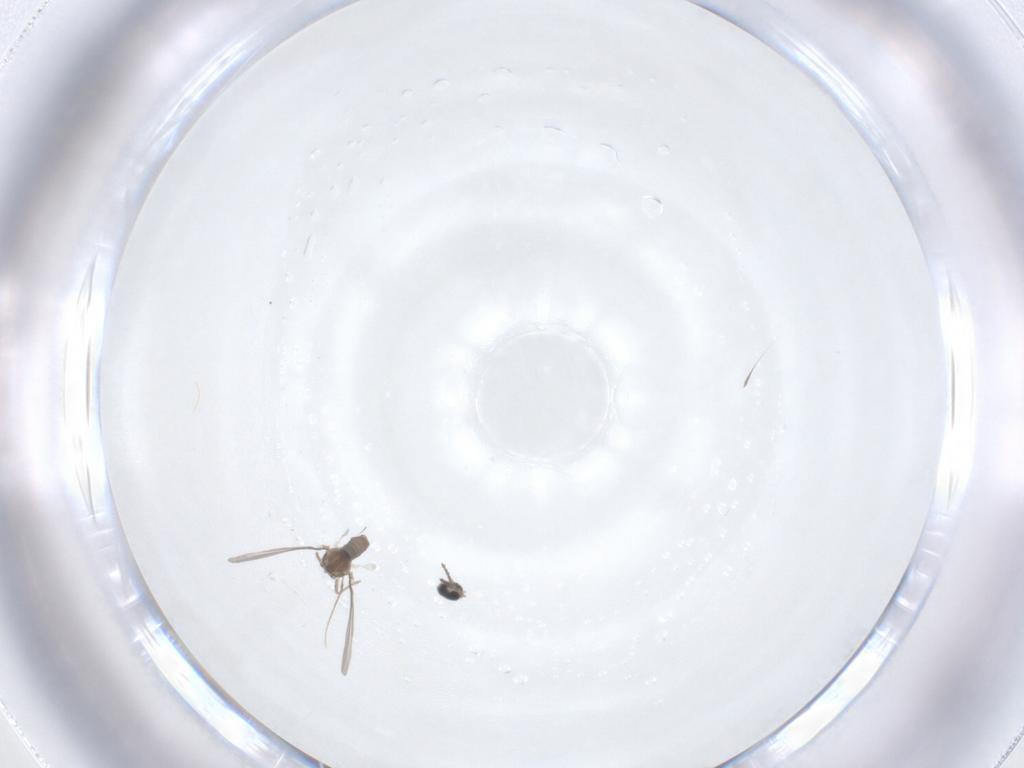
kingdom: Animalia
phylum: Arthropoda
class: Insecta
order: Diptera
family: Cecidomyiidae
